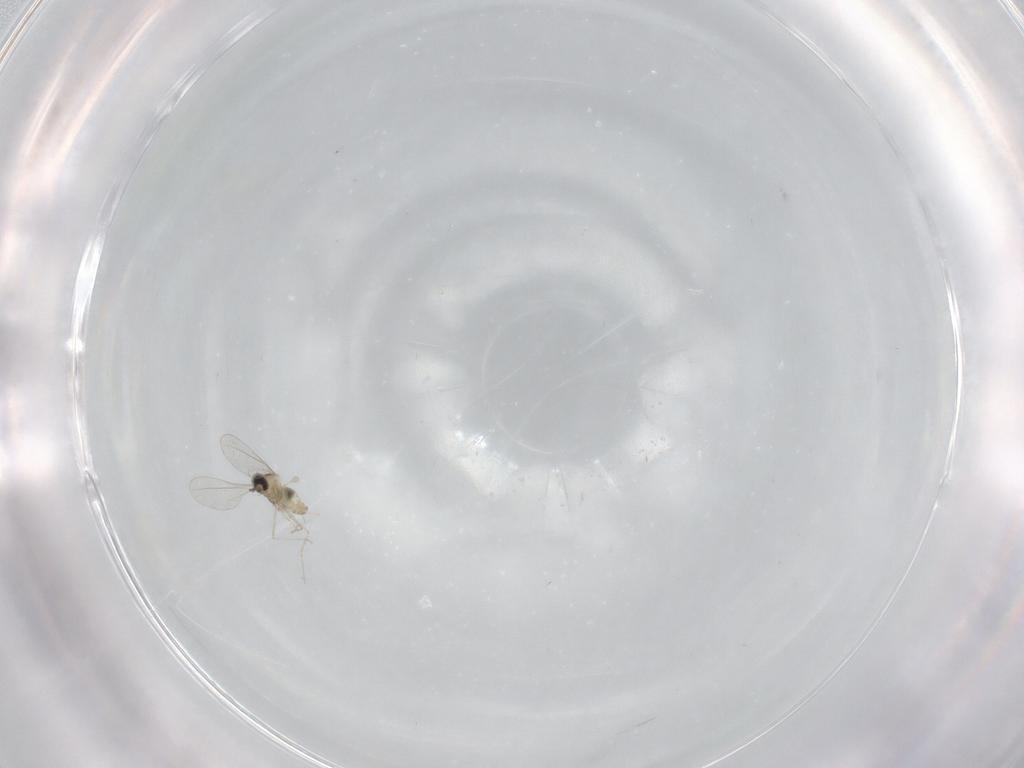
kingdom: Animalia
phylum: Arthropoda
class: Insecta
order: Diptera
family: Cecidomyiidae
